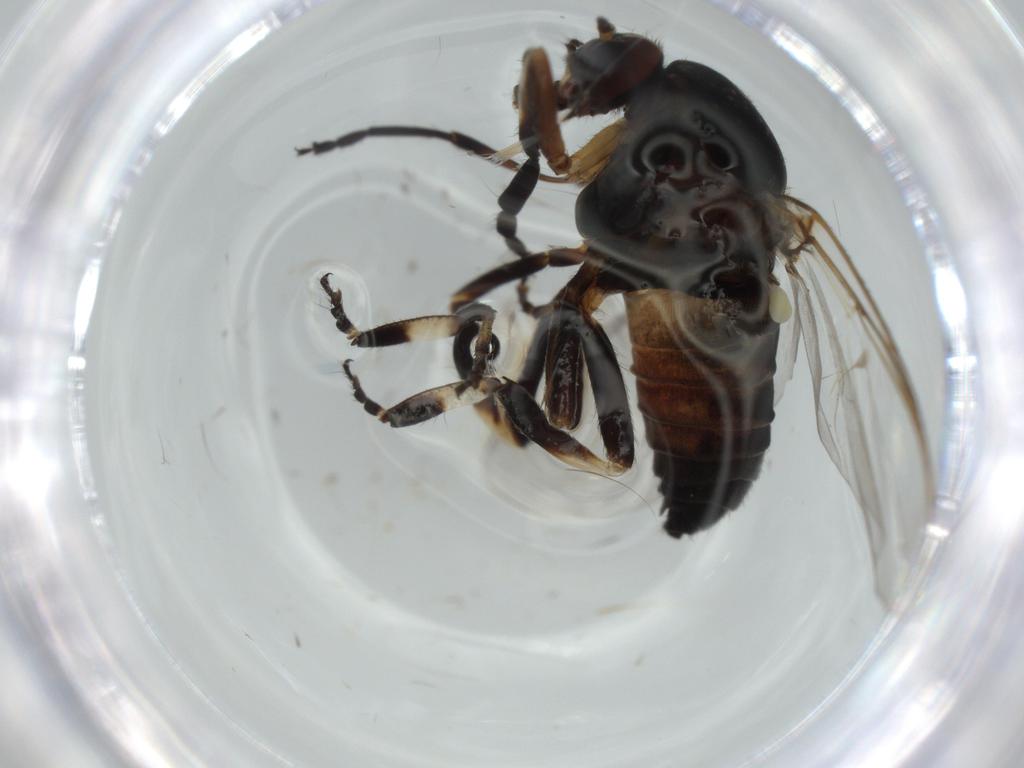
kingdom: Animalia
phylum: Arthropoda
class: Insecta
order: Diptera
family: Agromyzidae
